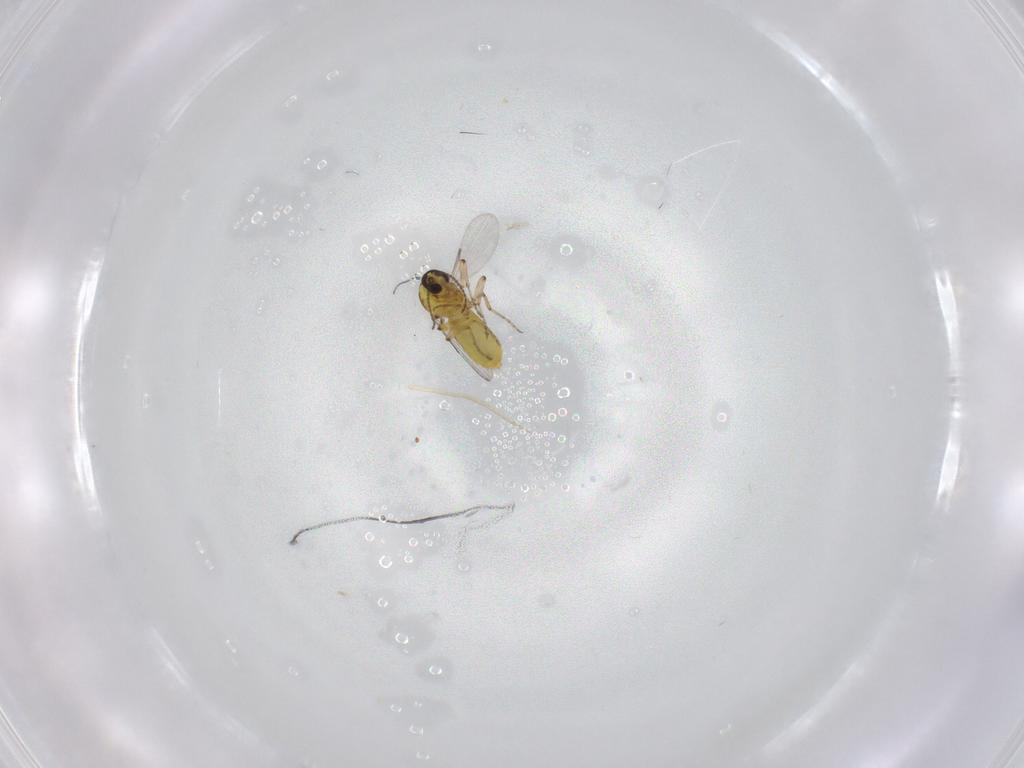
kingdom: Animalia
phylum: Arthropoda
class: Insecta
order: Diptera
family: Ceratopogonidae
